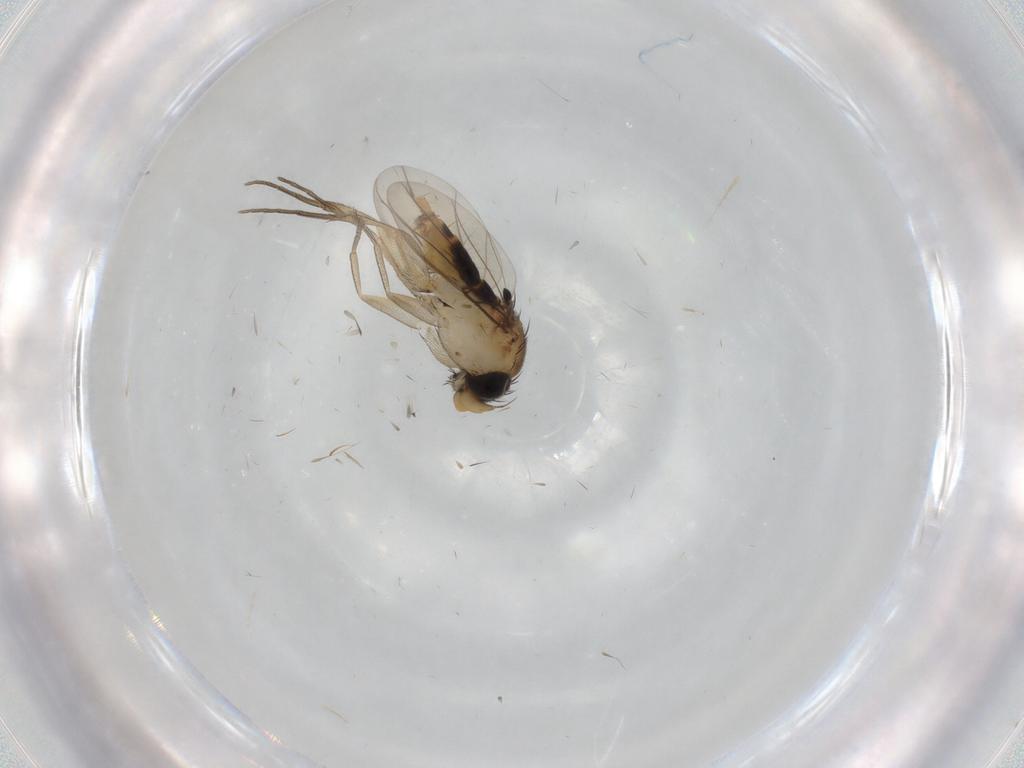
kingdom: Animalia
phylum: Arthropoda
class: Insecta
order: Diptera
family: Phoridae
